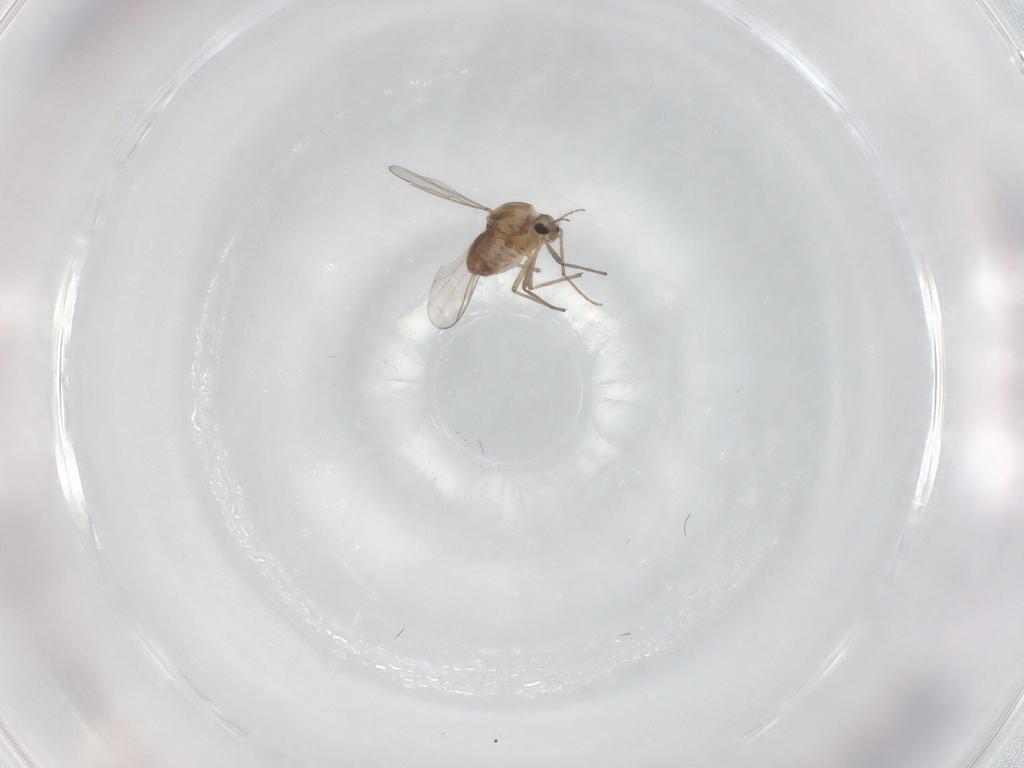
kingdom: Animalia
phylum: Arthropoda
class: Insecta
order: Diptera
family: Chironomidae
